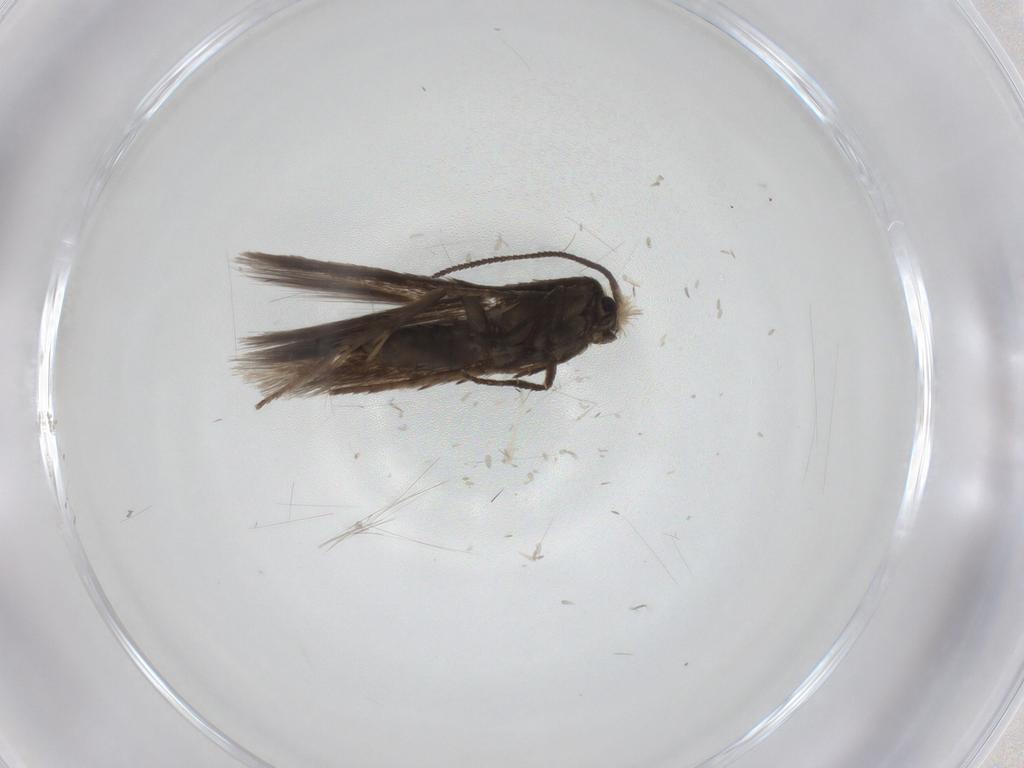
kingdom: Animalia
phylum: Arthropoda
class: Insecta
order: Lepidoptera
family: Nepticulidae
